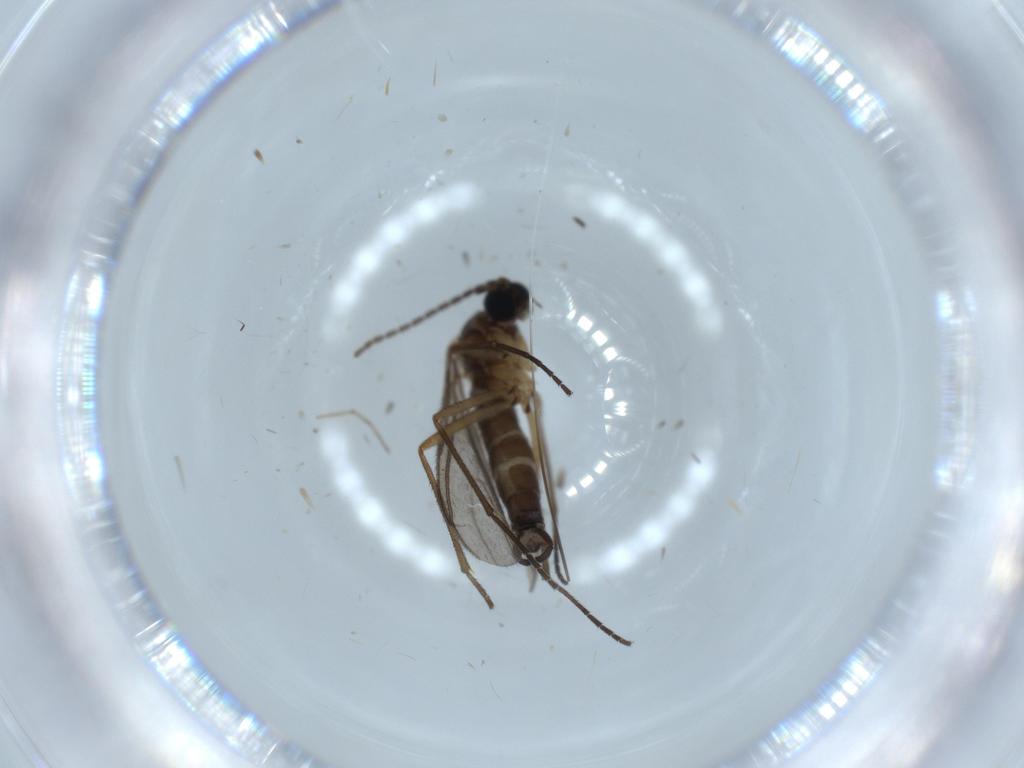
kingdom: Animalia
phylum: Arthropoda
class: Insecta
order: Diptera
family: Sciaridae
